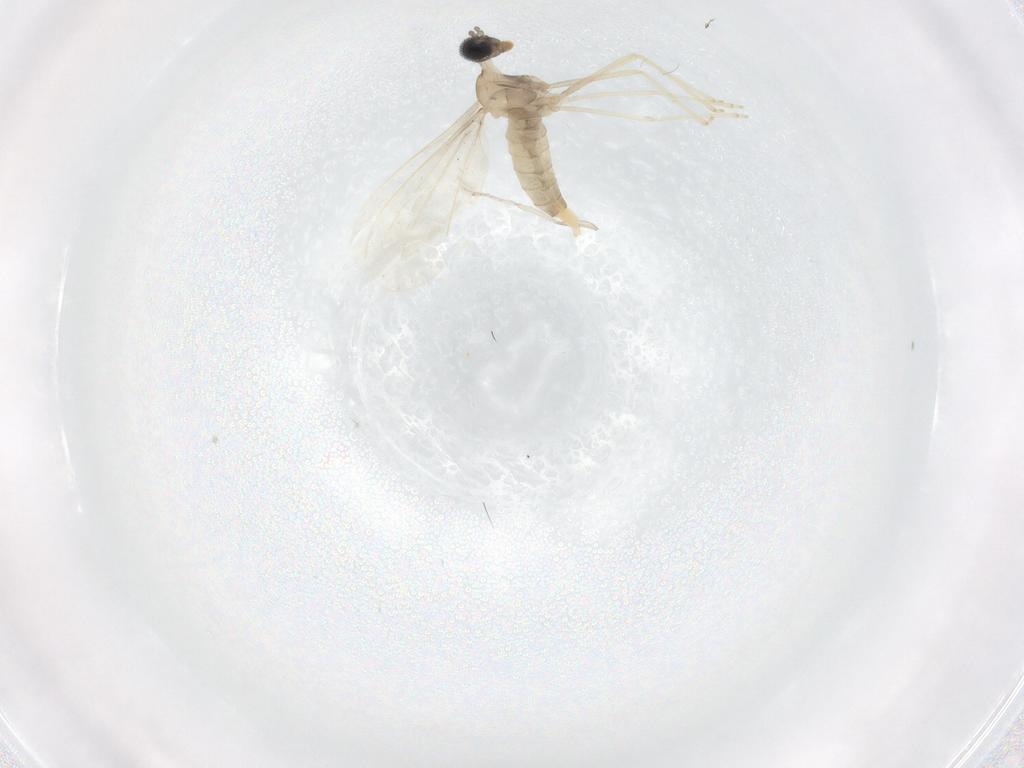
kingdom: Animalia
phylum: Arthropoda
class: Insecta
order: Diptera
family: Cecidomyiidae
